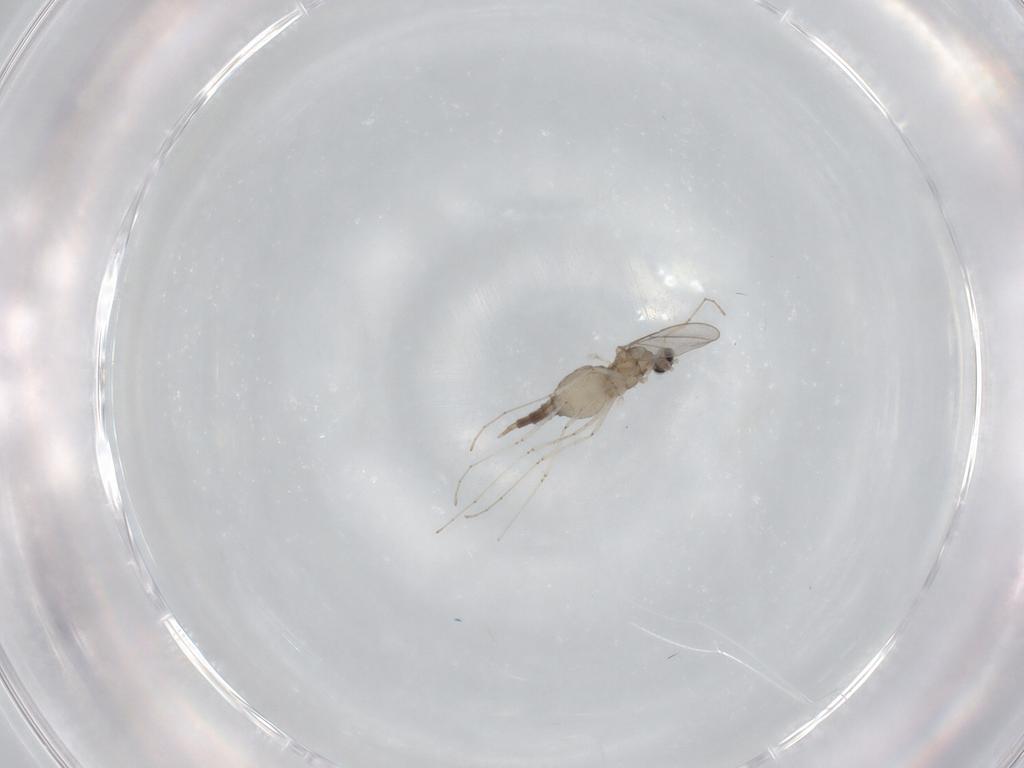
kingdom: Animalia
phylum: Arthropoda
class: Insecta
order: Diptera
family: Cecidomyiidae
